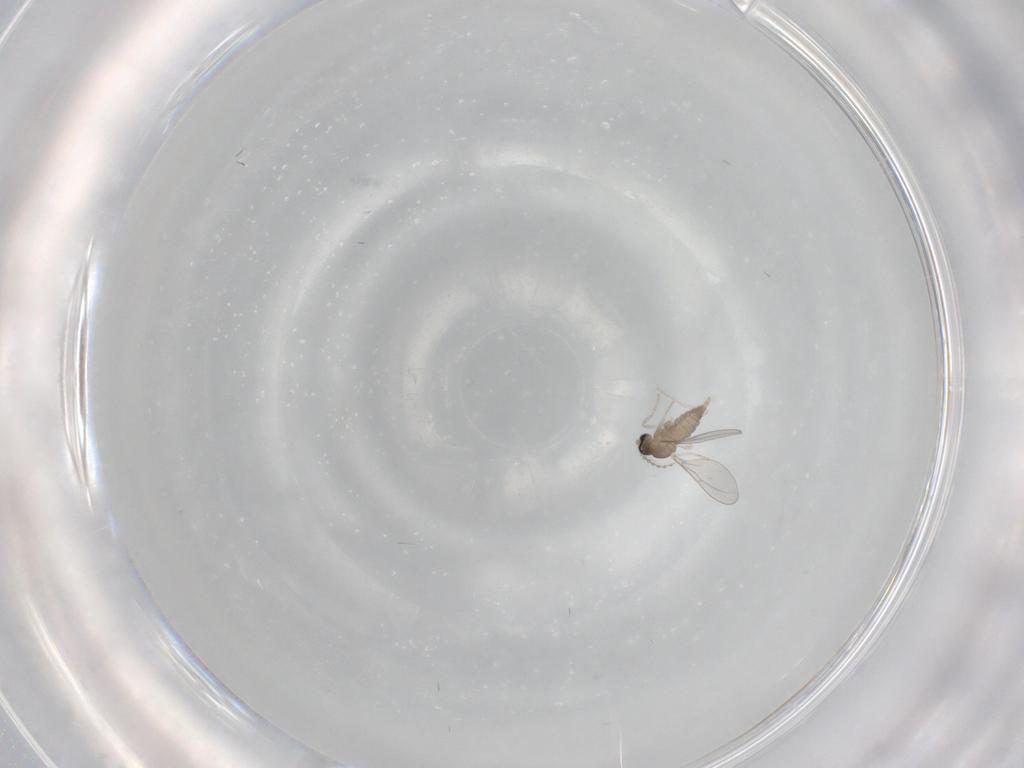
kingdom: Animalia
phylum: Arthropoda
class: Insecta
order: Diptera
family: Cecidomyiidae
